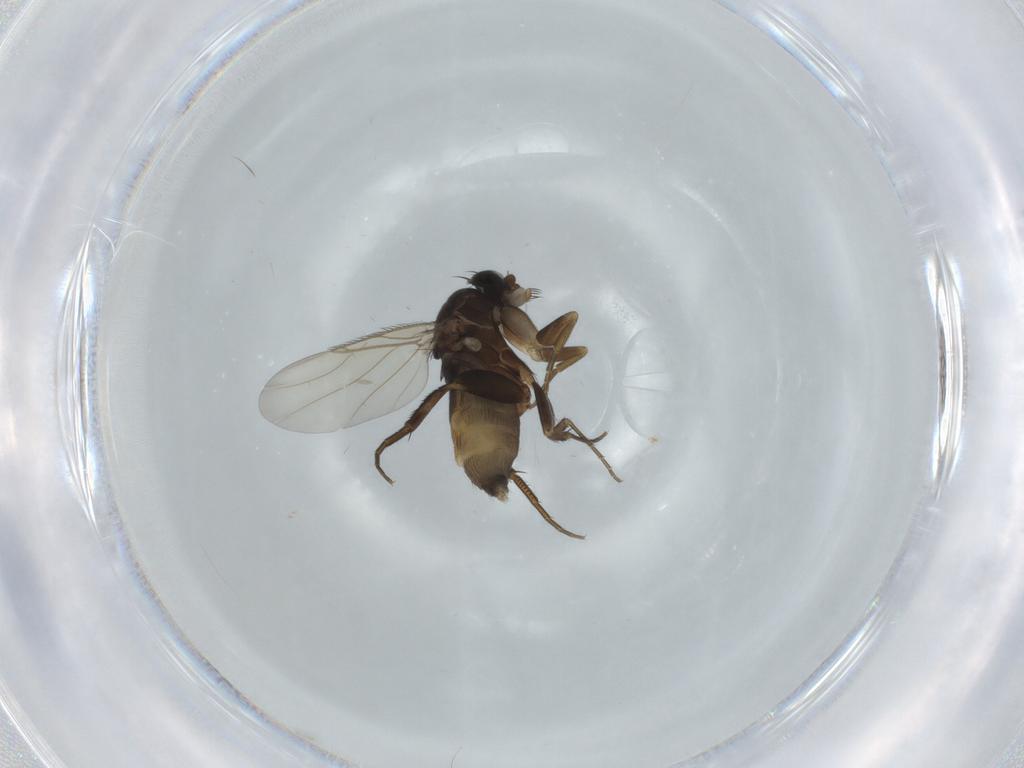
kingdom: Animalia
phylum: Arthropoda
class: Insecta
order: Diptera
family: Phoridae
